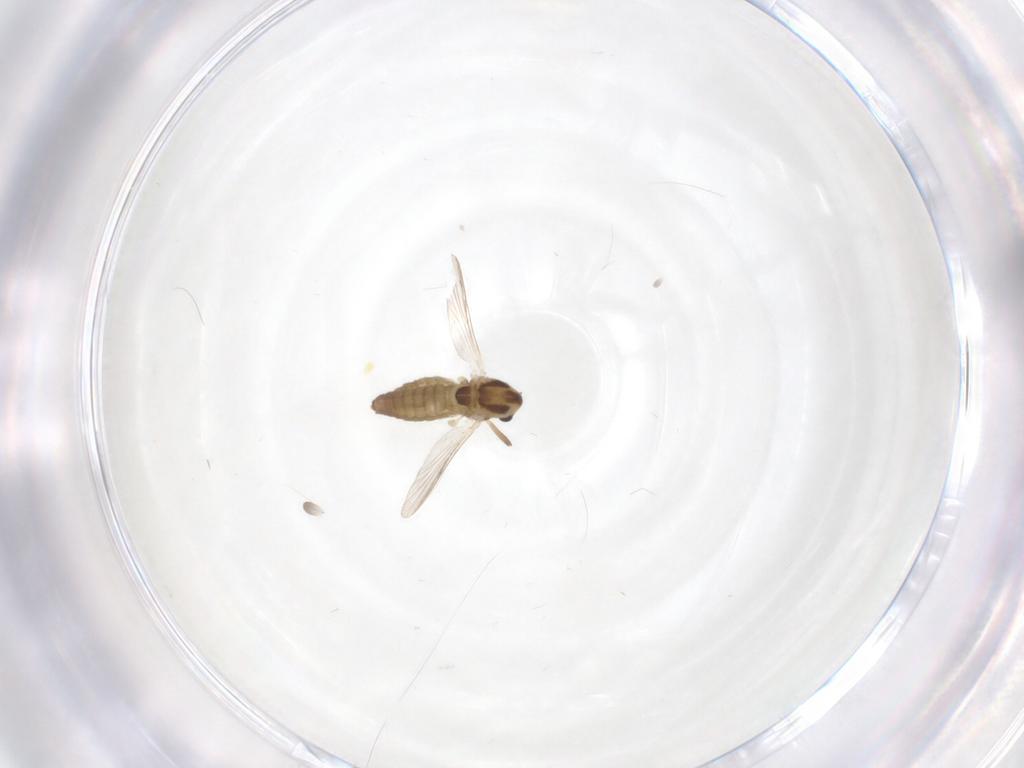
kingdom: Animalia
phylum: Arthropoda
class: Insecta
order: Diptera
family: Chironomidae
